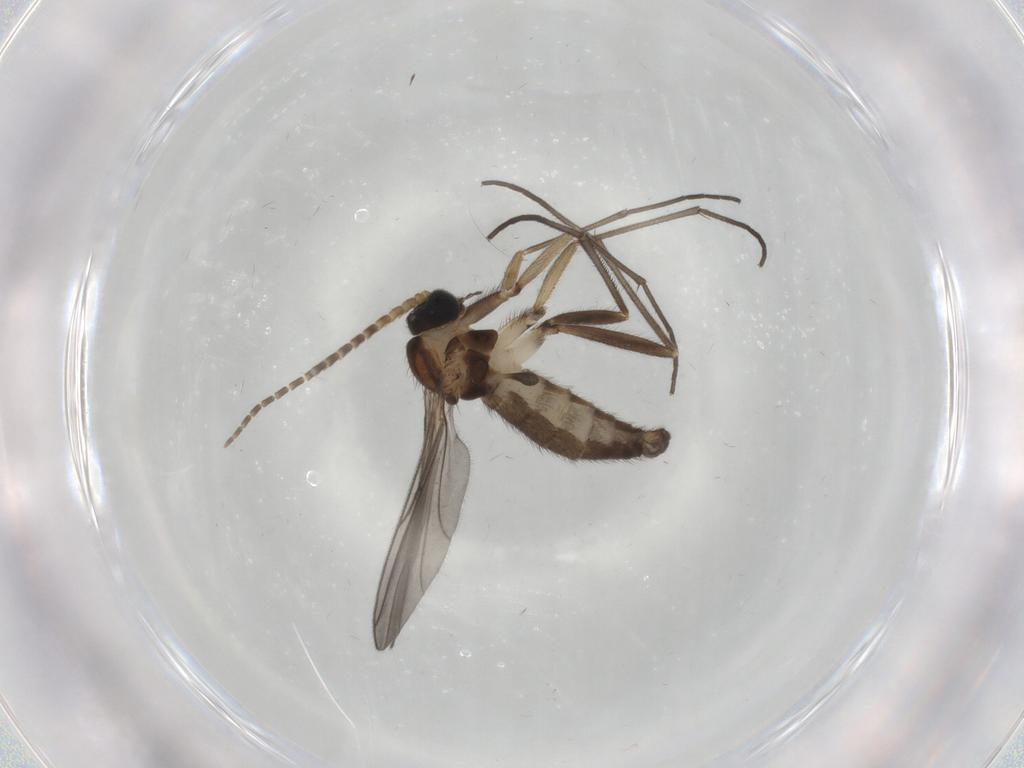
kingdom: Animalia
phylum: Arthropoda
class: Insecta
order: Diptera
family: Sciaridae
